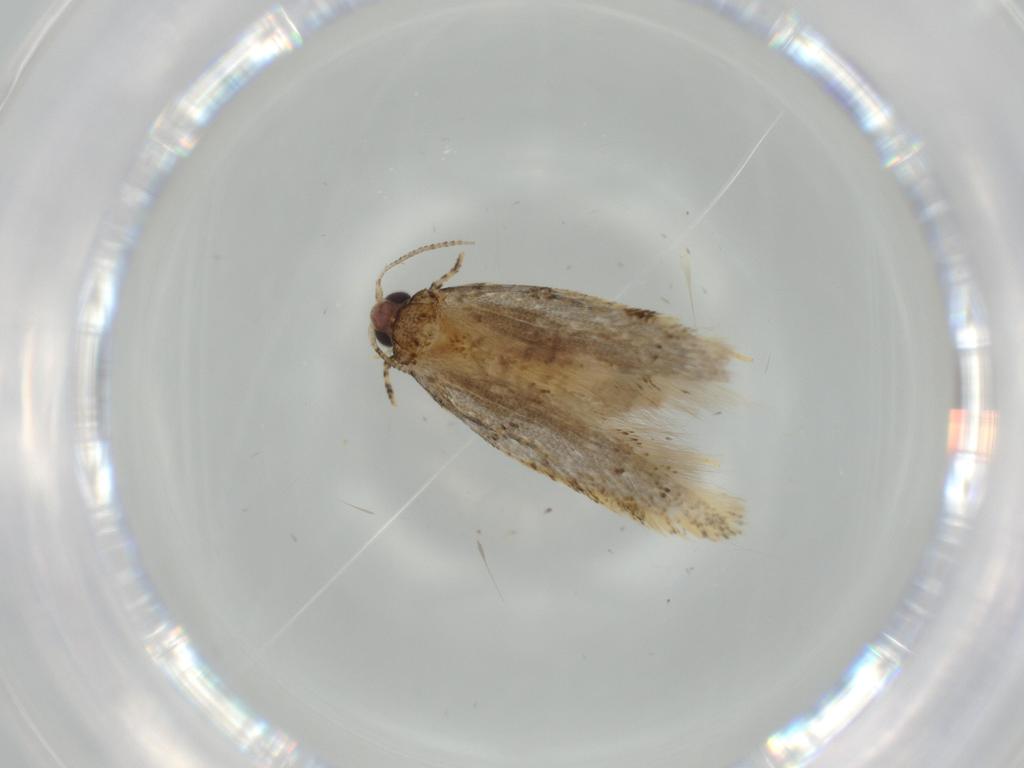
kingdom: Animalia
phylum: Arthropoda
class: Insecta
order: Lepidoptera
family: Tineidae
